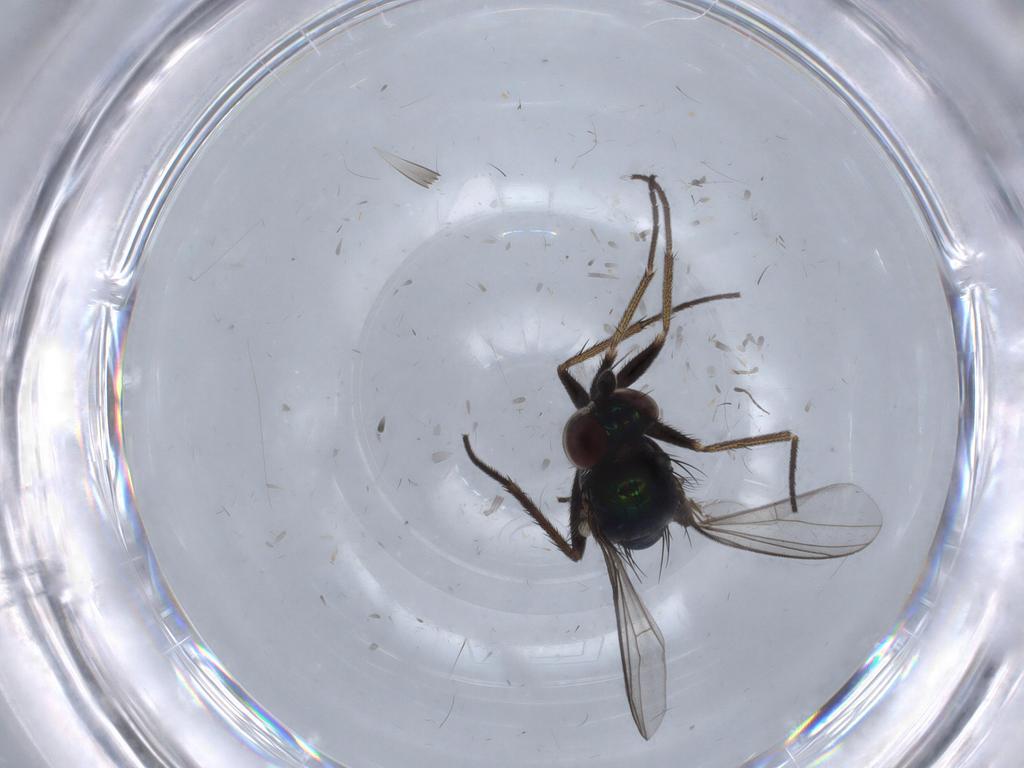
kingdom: Animalia
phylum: Arthropoda
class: Insecta
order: Diptera
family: Dolichopodidae
